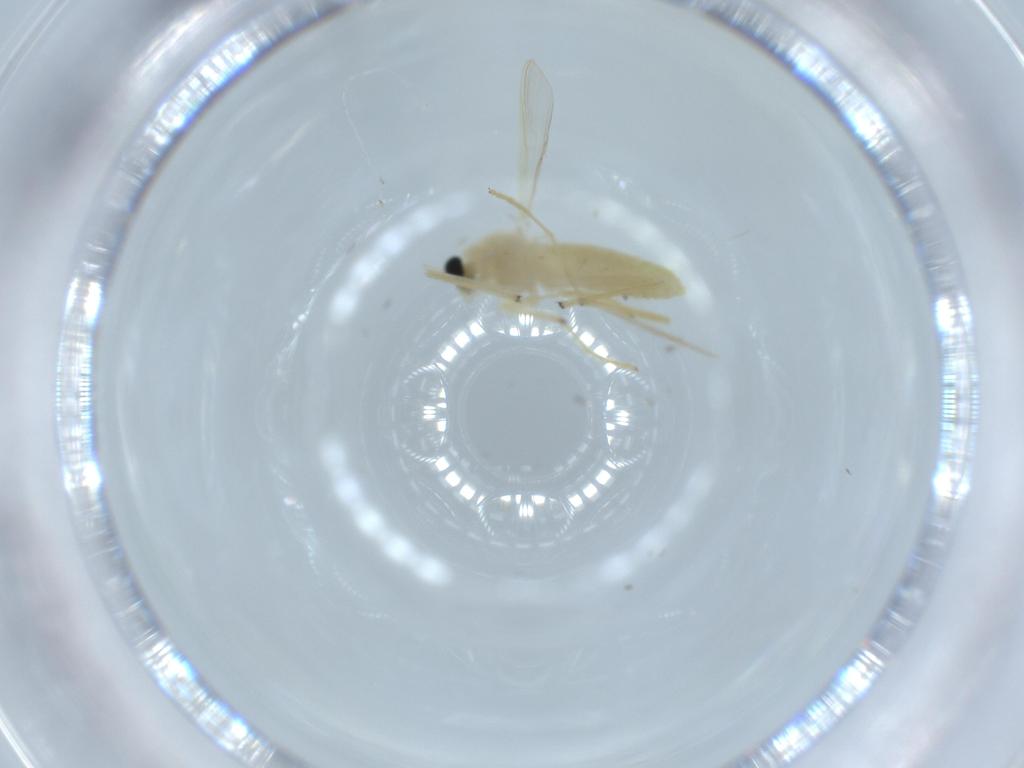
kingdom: Animalia
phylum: Arthropoda
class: Insecta
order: Diptera
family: Chironomidae
